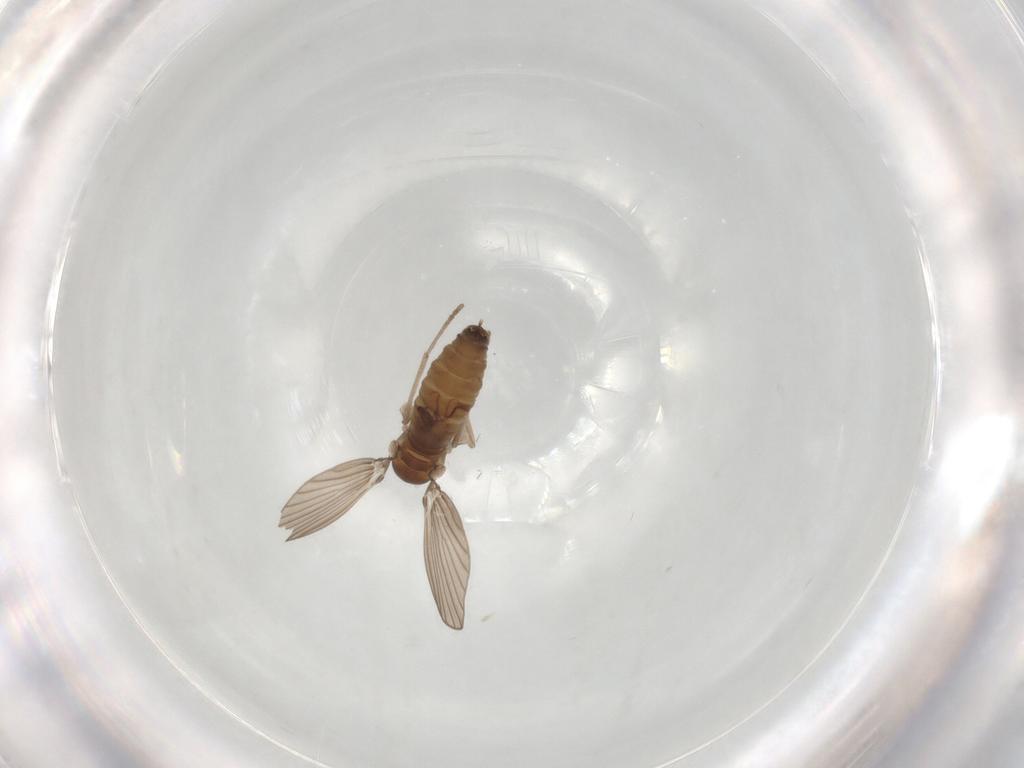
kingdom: Animalia
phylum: Arthropoda
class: Insecta
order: Diptera
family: Psychodidae
